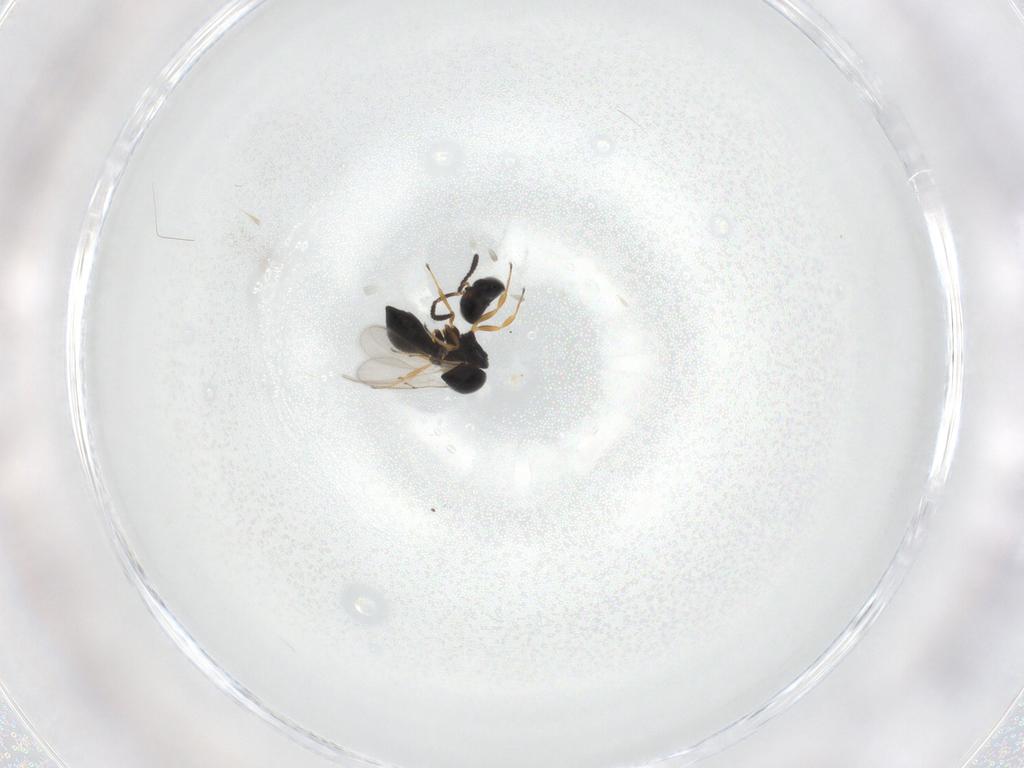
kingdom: Animalia
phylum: Arthropoda
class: Insecta
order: Hymenoptera
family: Scelionidae
